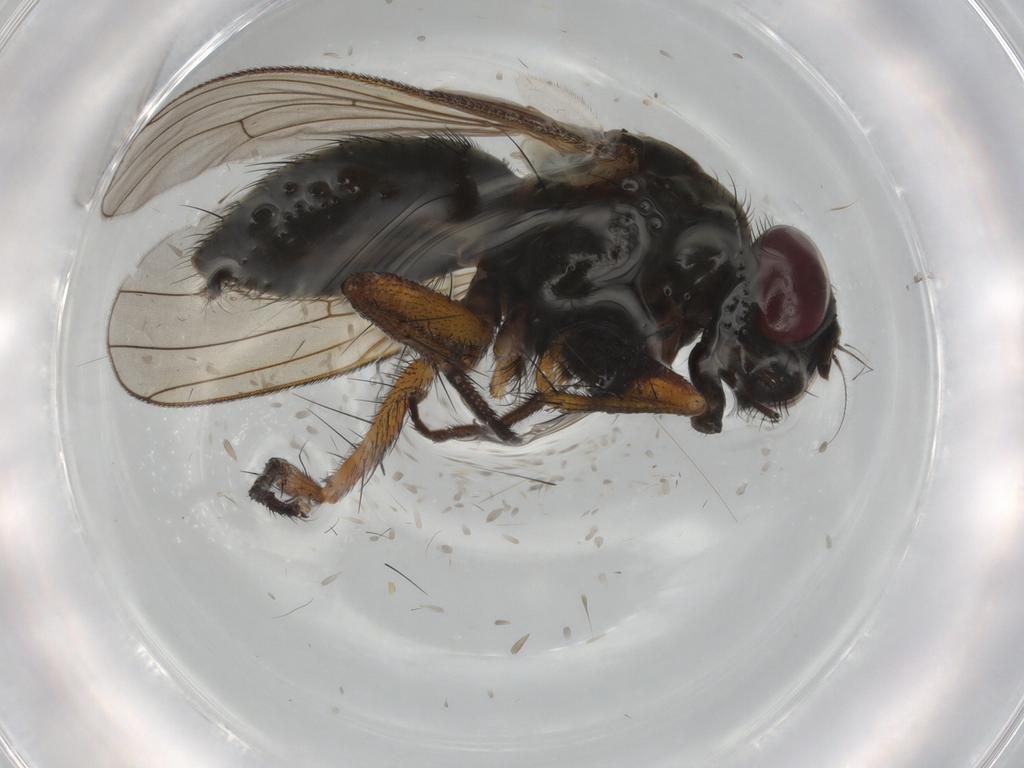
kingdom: Animalia
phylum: Arthropoda
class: Insecta
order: Diptera
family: Muscidae
